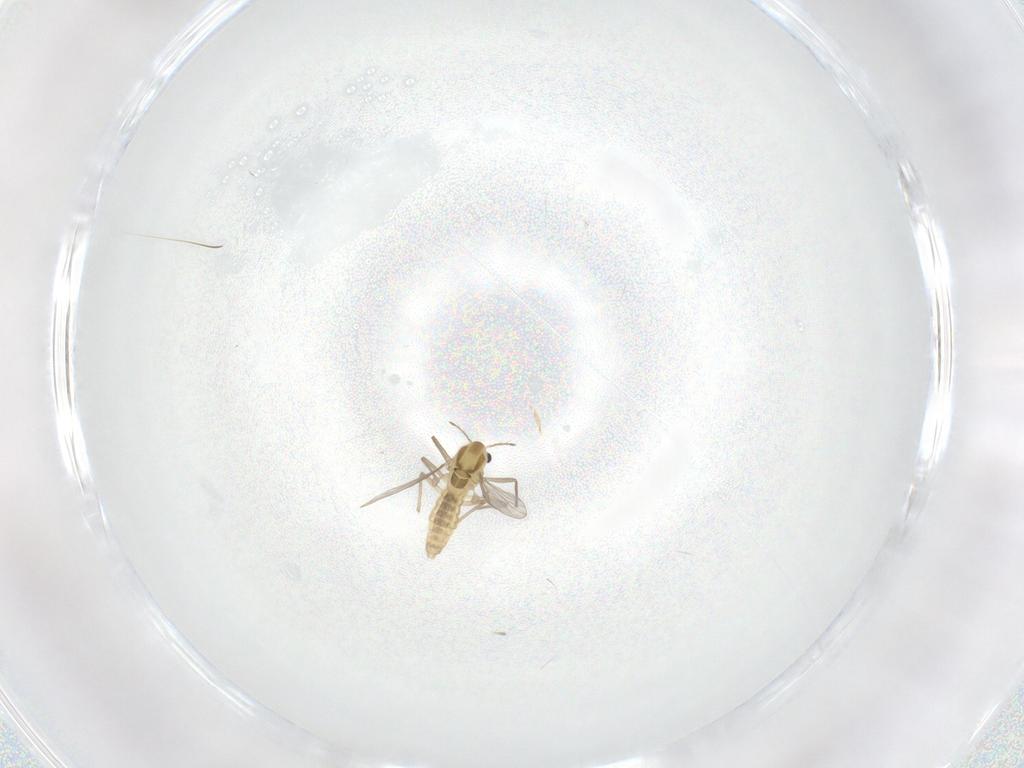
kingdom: Animalia
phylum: Arthropoda
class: Insecta
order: Diptera
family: Chironomidae
